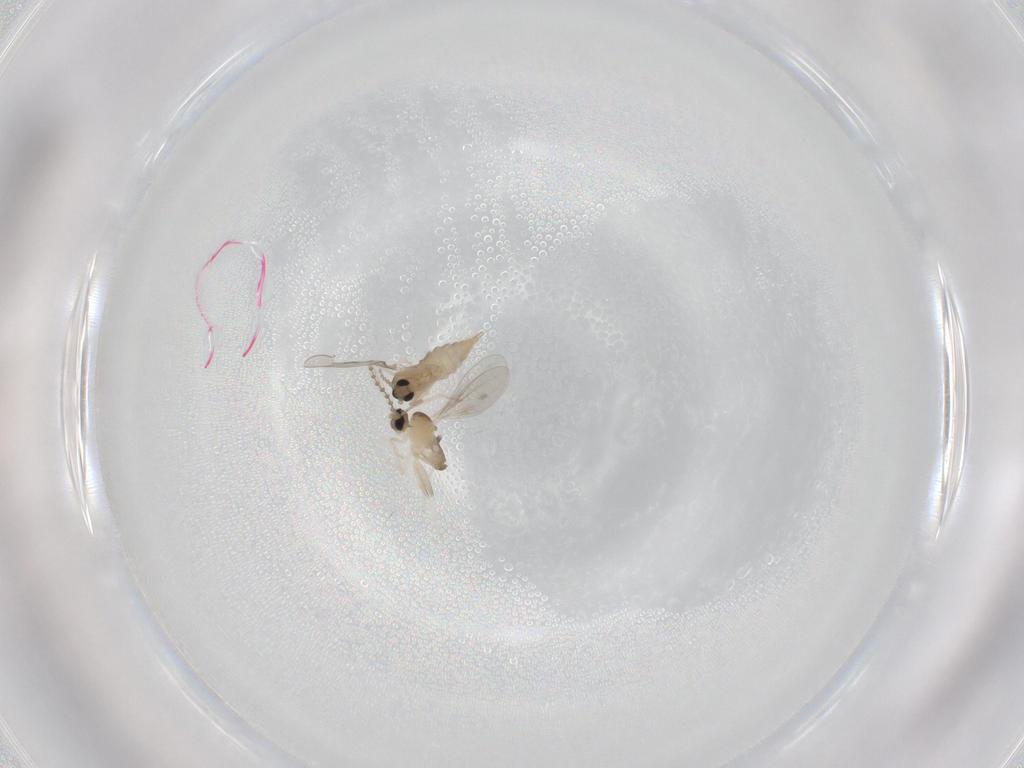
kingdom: Animalia
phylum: Arthropoda
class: Insecta
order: Diptera
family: Cecidomyiidae
